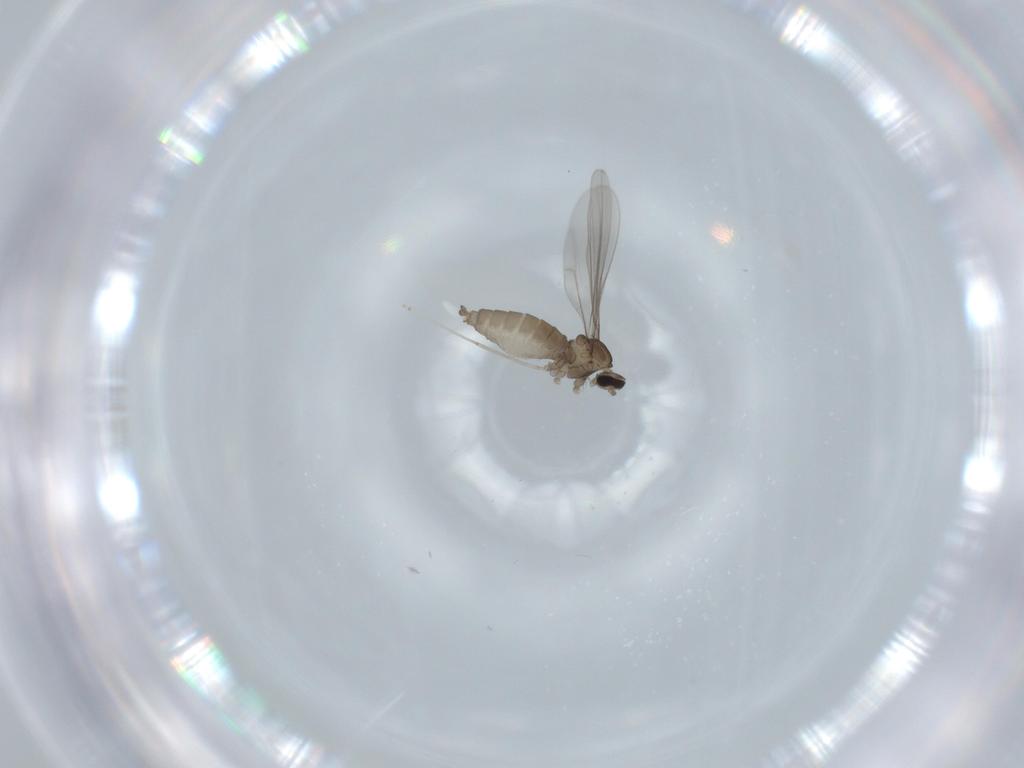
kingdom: Animalia
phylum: Arthropoda
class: Insecta
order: Diptera
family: Cecidomyiidae
